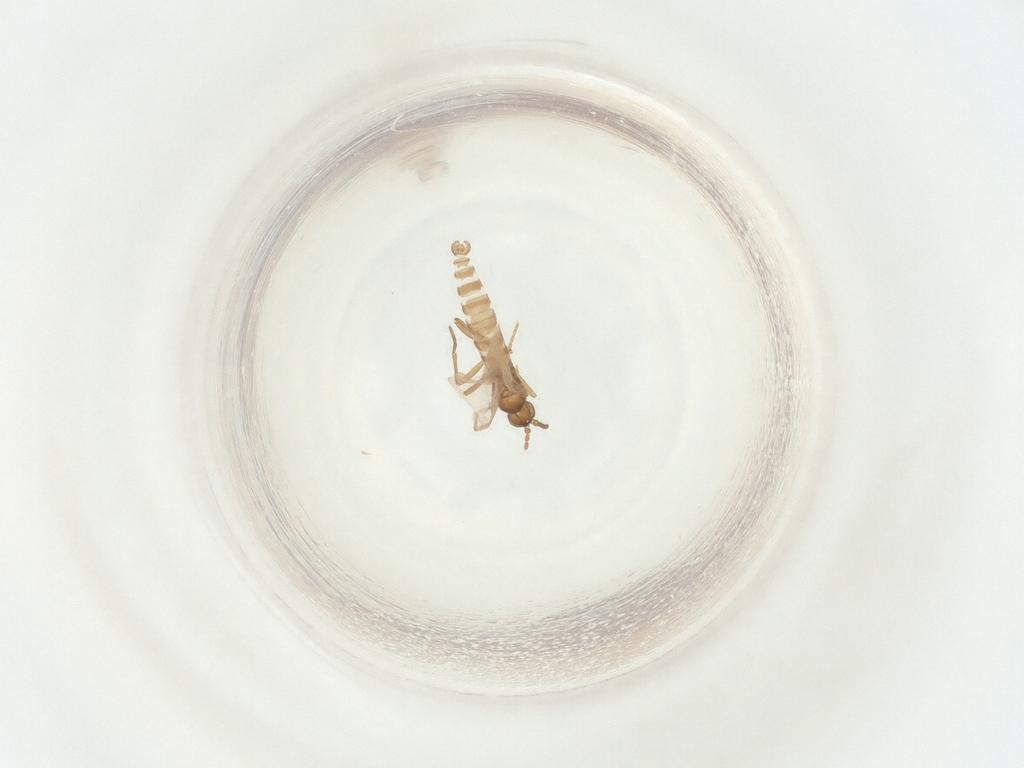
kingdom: Animalia
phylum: Arthropoda
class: Insecta
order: Diptera
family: Sciaridae
